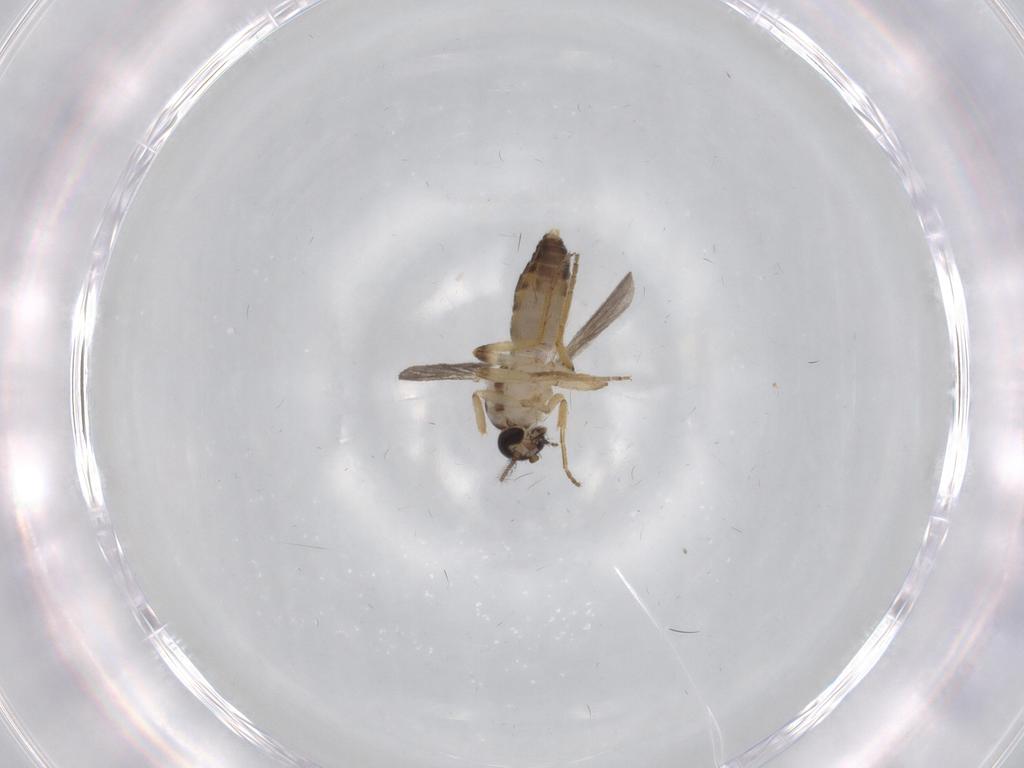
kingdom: Animalia
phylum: Arthropoda
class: Insecta
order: Diptera
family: Ceratopogonidae
